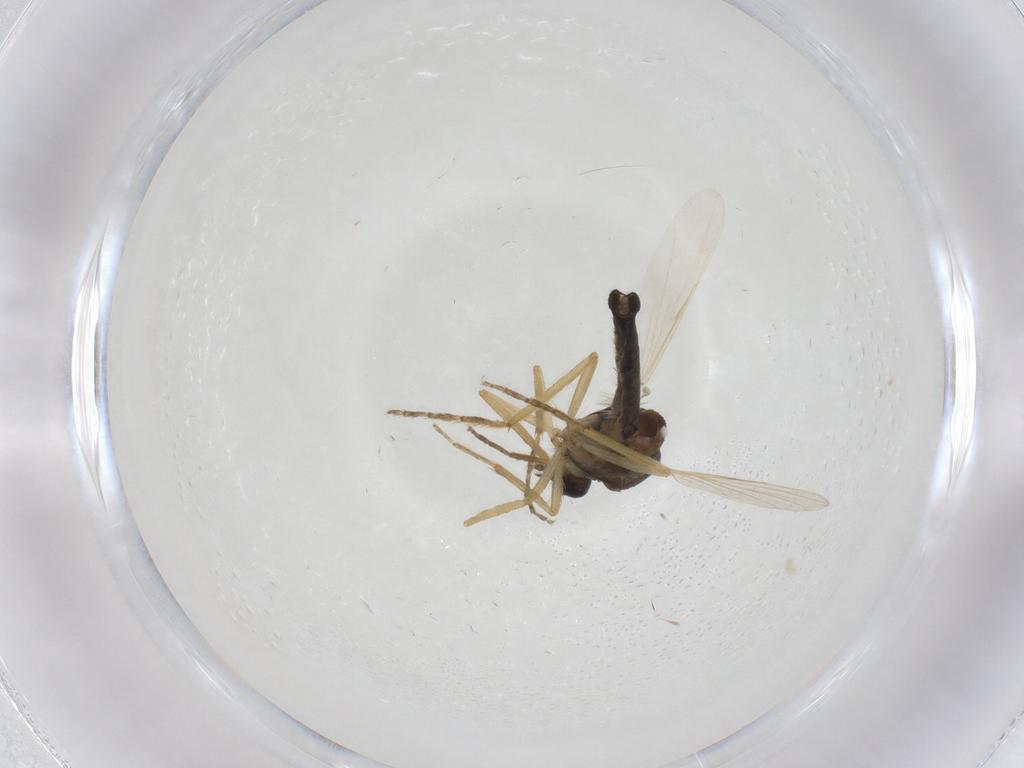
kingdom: Animalia
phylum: Arthropoda
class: Insecta
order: Diptera
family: Ceratopogonidae
